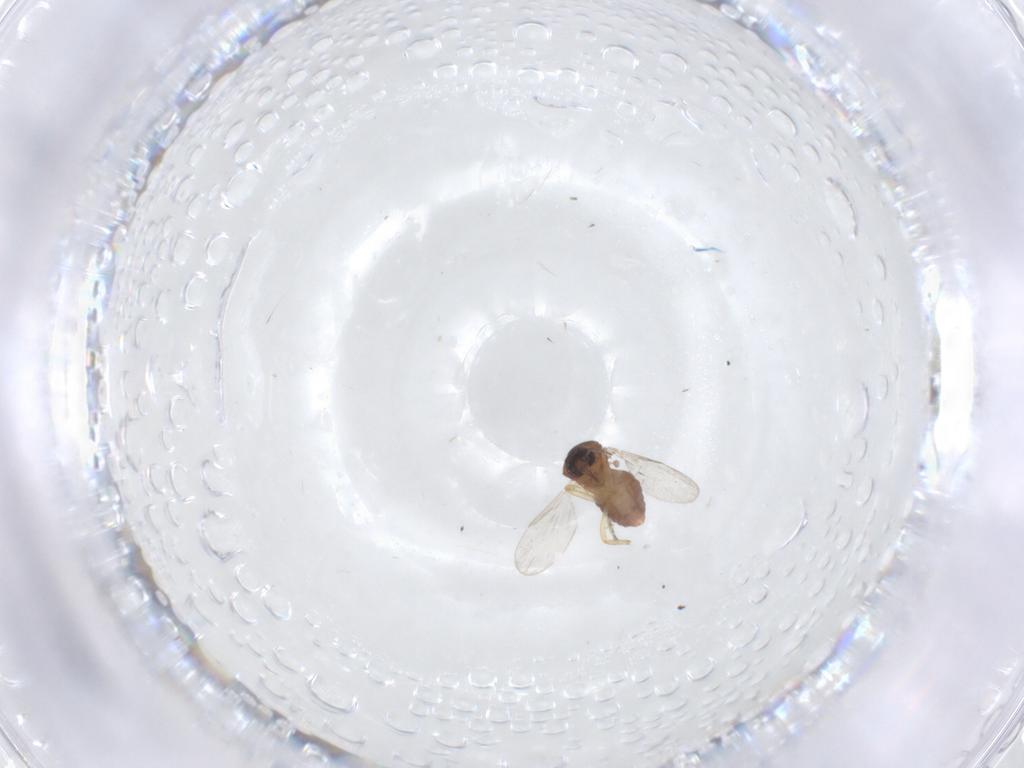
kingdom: Animalia
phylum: Arthropoda
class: Insecta
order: Diptera
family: Ceratopogonidae
